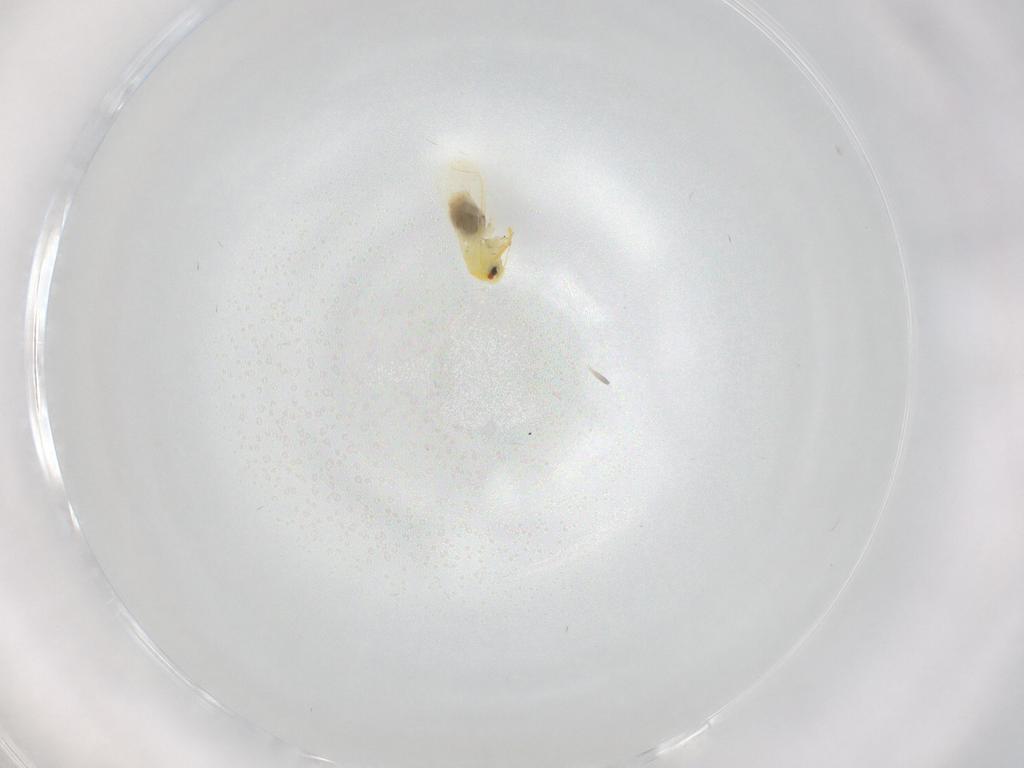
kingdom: Animalia
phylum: Arthropoda
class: Insecta
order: Hemiptera
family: Aleyrodidae
